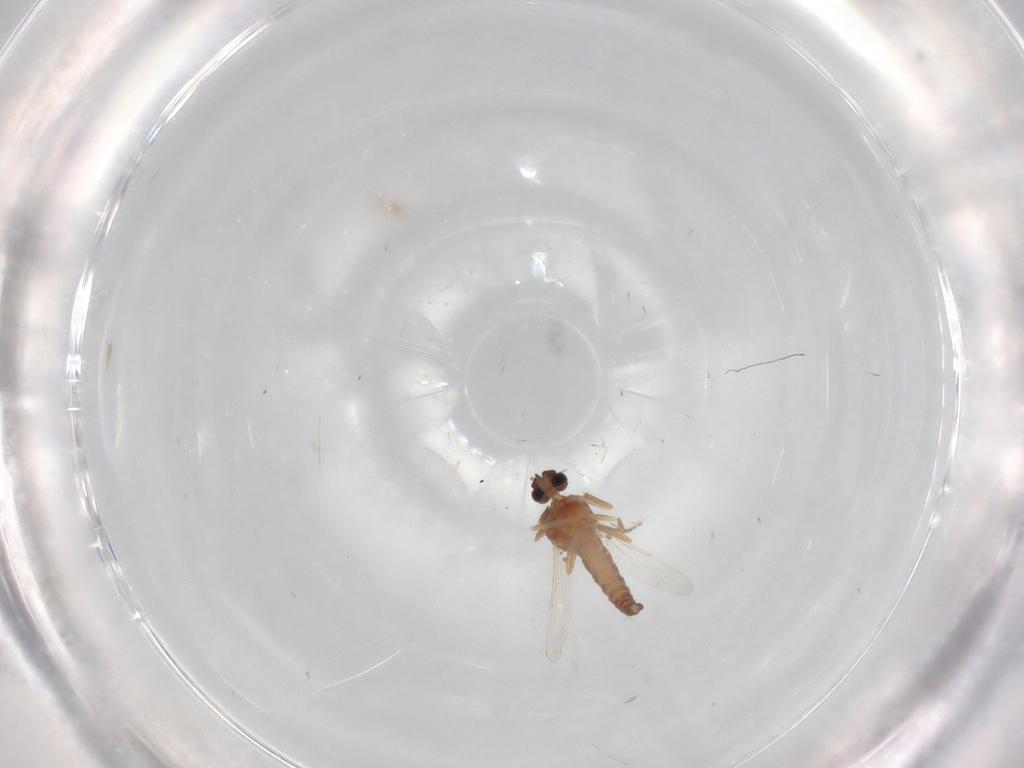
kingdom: Animalia
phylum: Arthropoda
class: Insecta
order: Diptera
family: Ceratopogonidae
